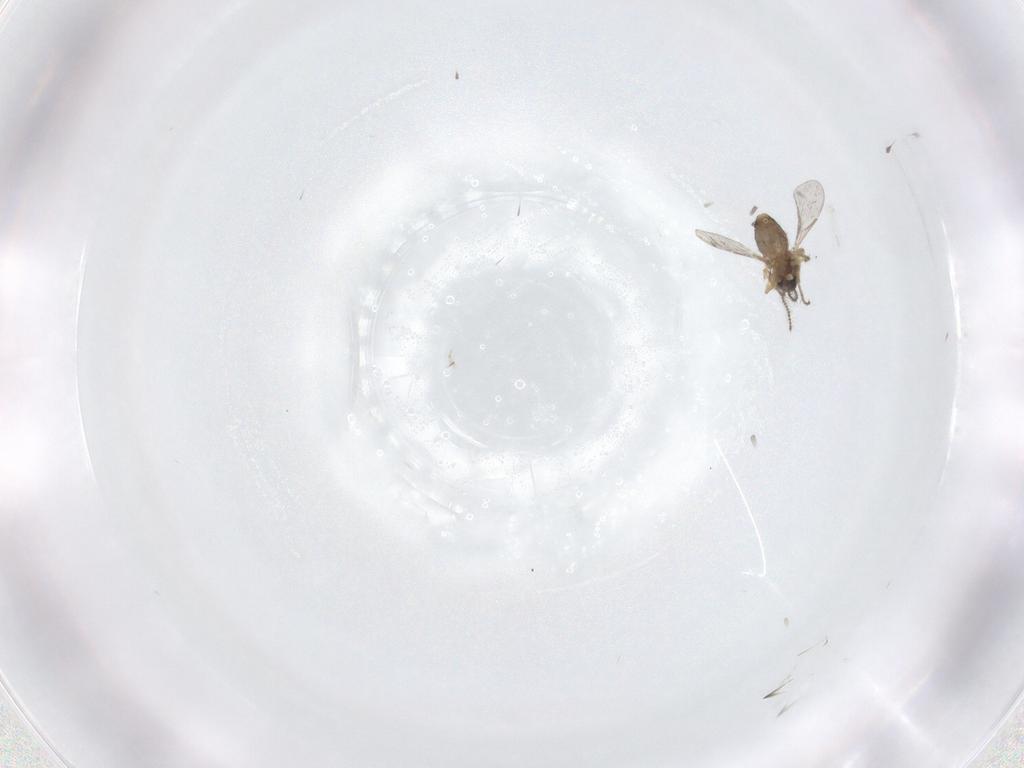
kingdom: Animalia
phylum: Arthropoda
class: Insecta
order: Diptera
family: Ceratopogonidae
